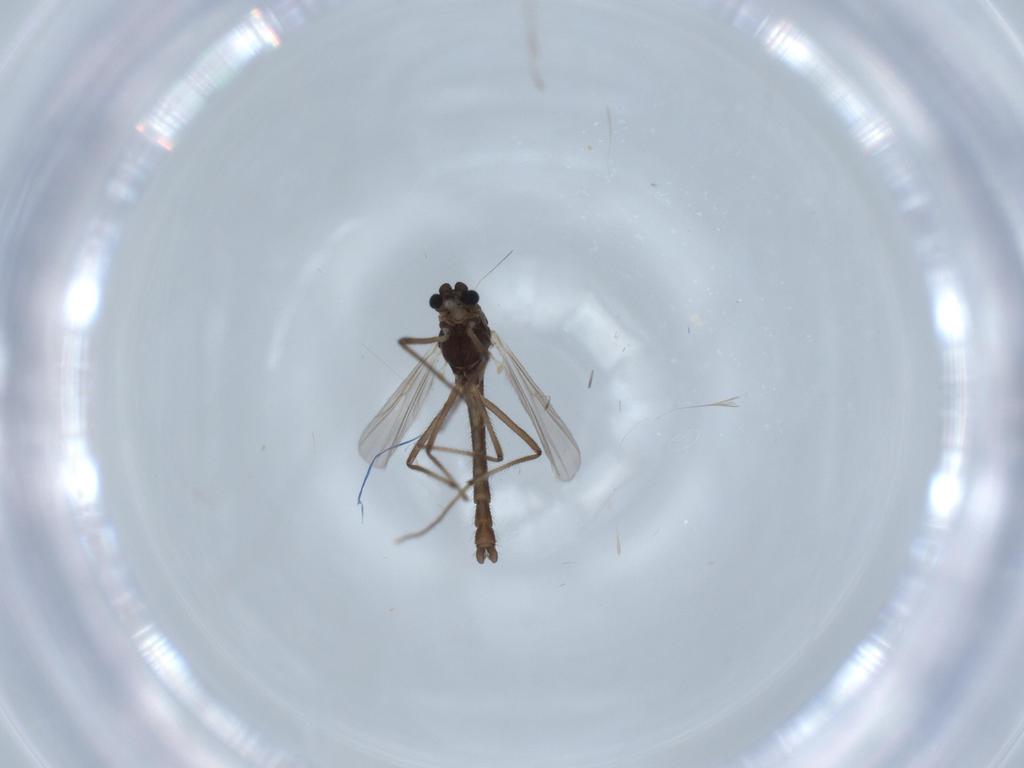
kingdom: Animalia
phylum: Arthropoda
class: Insecta
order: Diptera
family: Chironomidae
